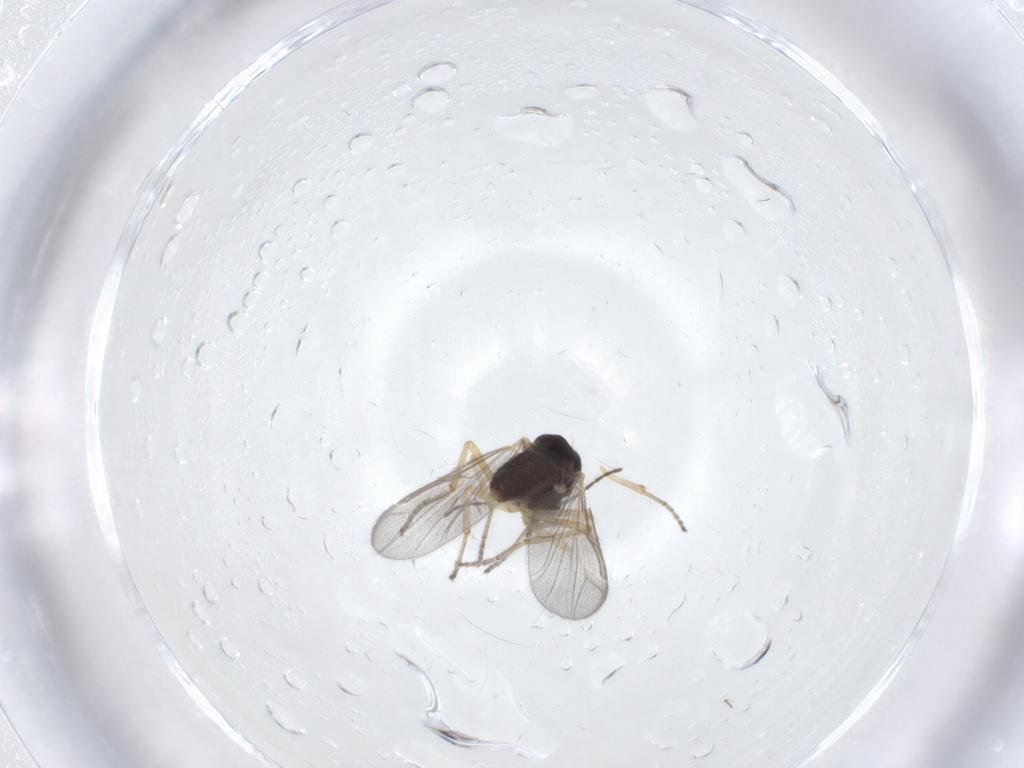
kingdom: Animalia
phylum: Arthropoda
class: Insecta
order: Diptera
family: Ceratopogonidae
